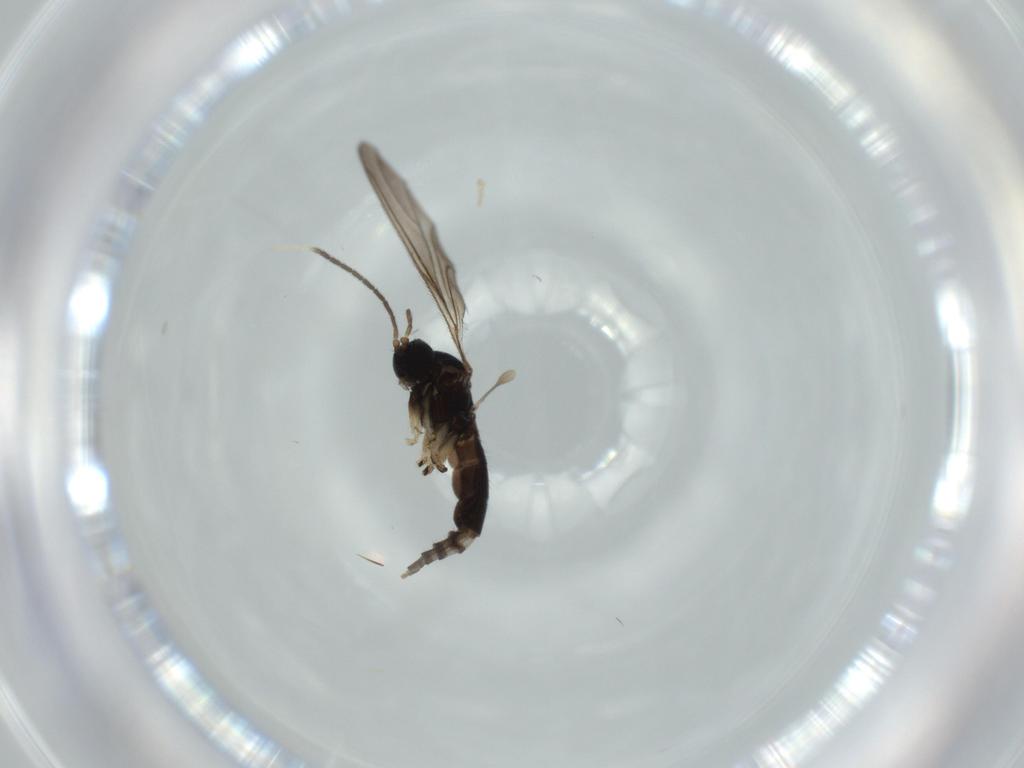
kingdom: Animalia
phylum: Arthropoda
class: Insecta
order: Diptera
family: Sciaridae
